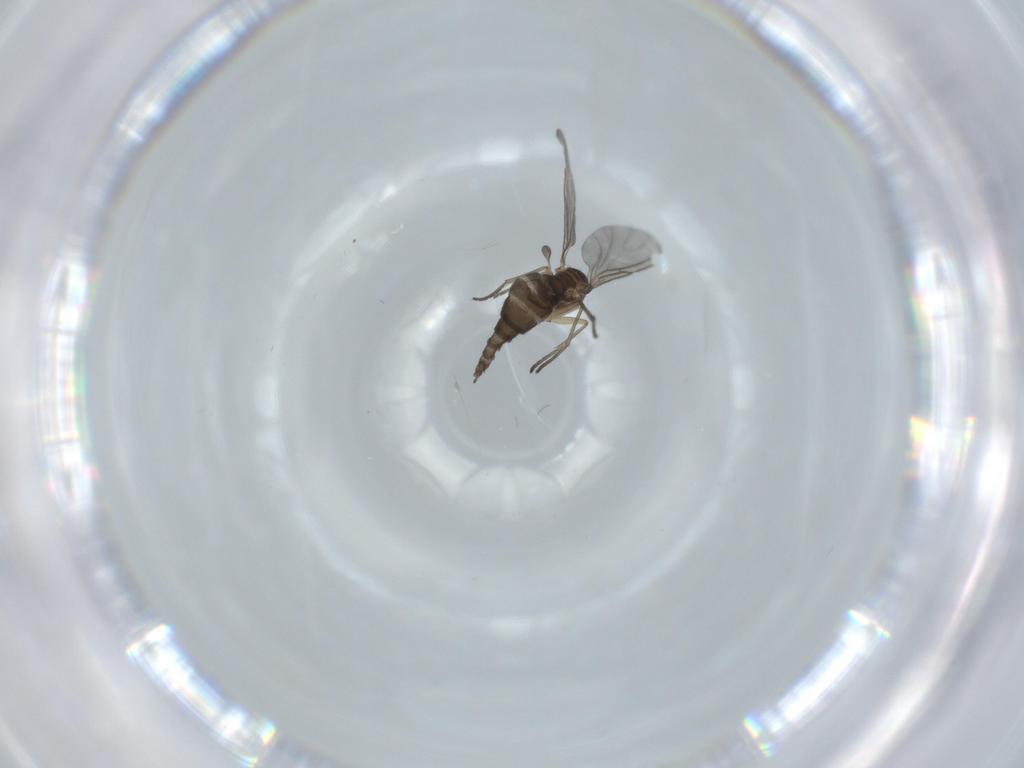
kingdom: Animalia
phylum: Arthropoda
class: Insecta
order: Diptera
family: Sciaridae
